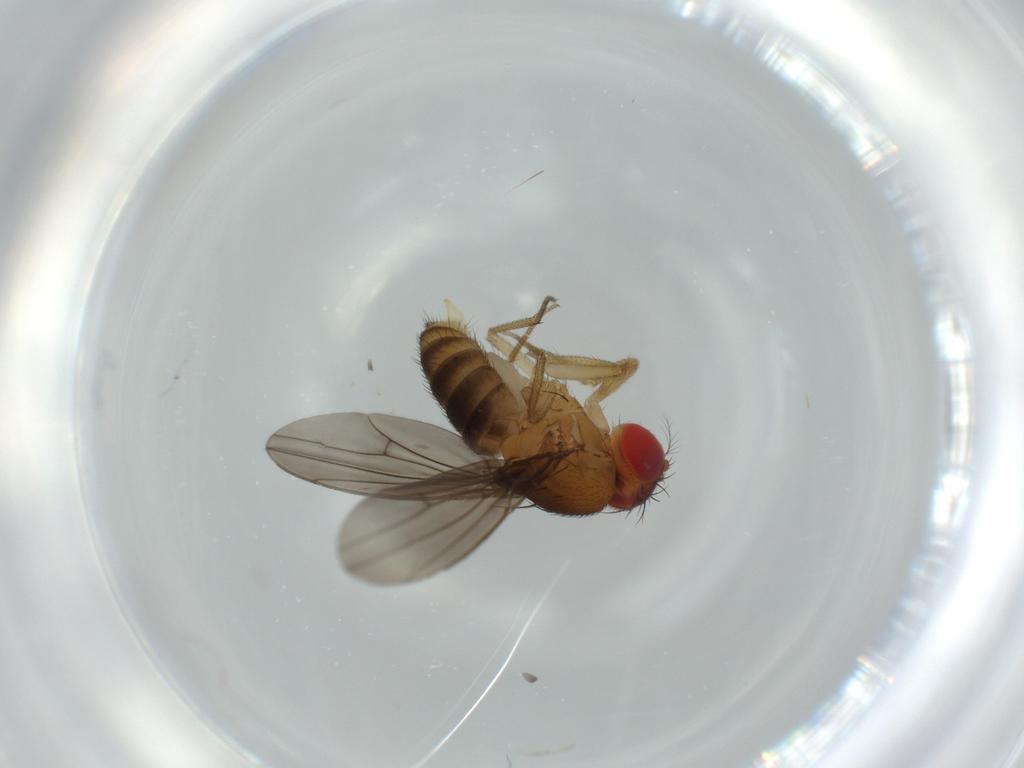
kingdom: Animalia
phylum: Arthropoda
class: Insecta
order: Diptera
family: Drosophilidae
